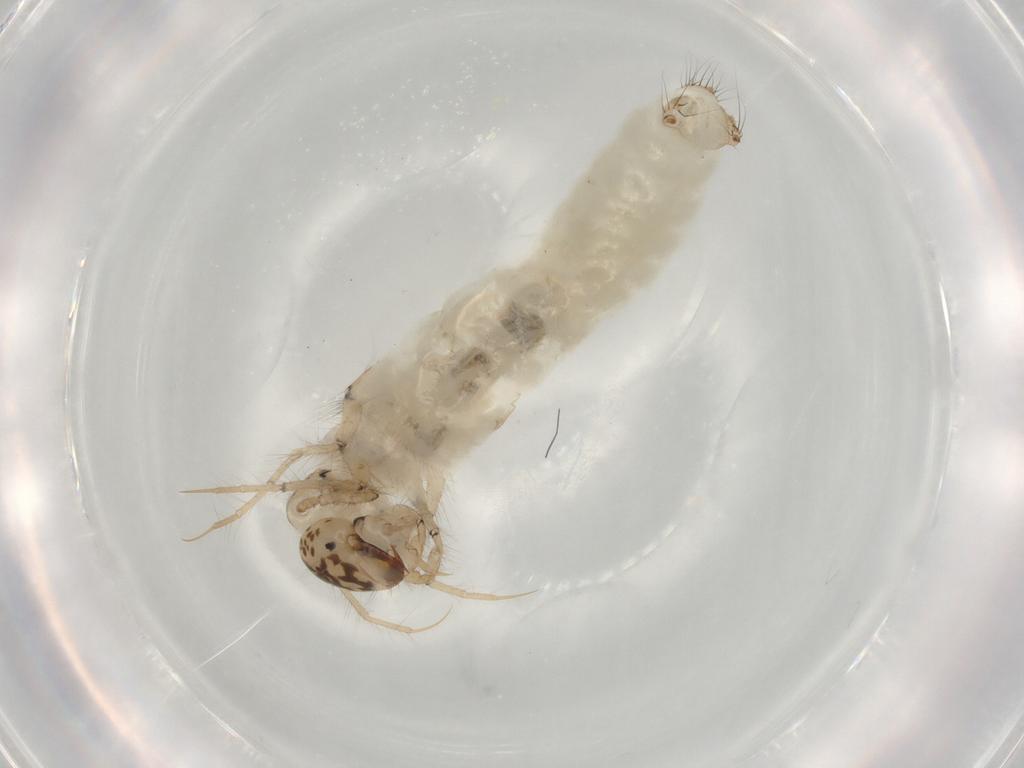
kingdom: Animalia
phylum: Arthropoda
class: Insecta
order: Trichoptera
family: Leptoceridae
